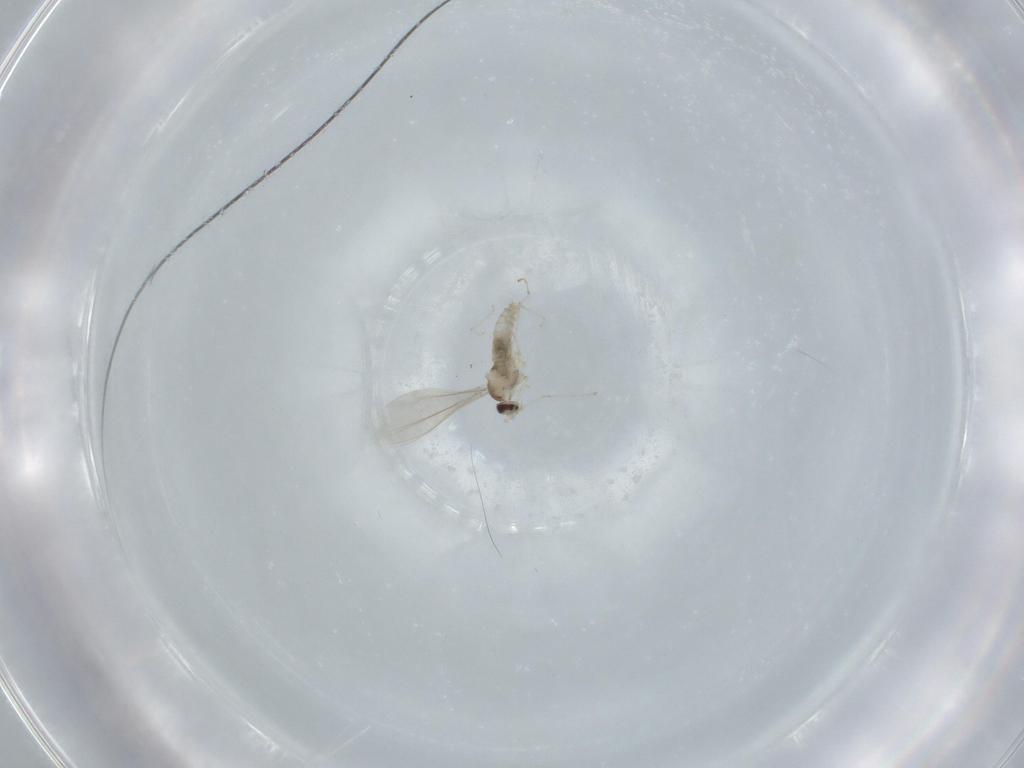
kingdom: Animalia
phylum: Arthropoda
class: Insecta
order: Diptera
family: Cecidomyiidae
